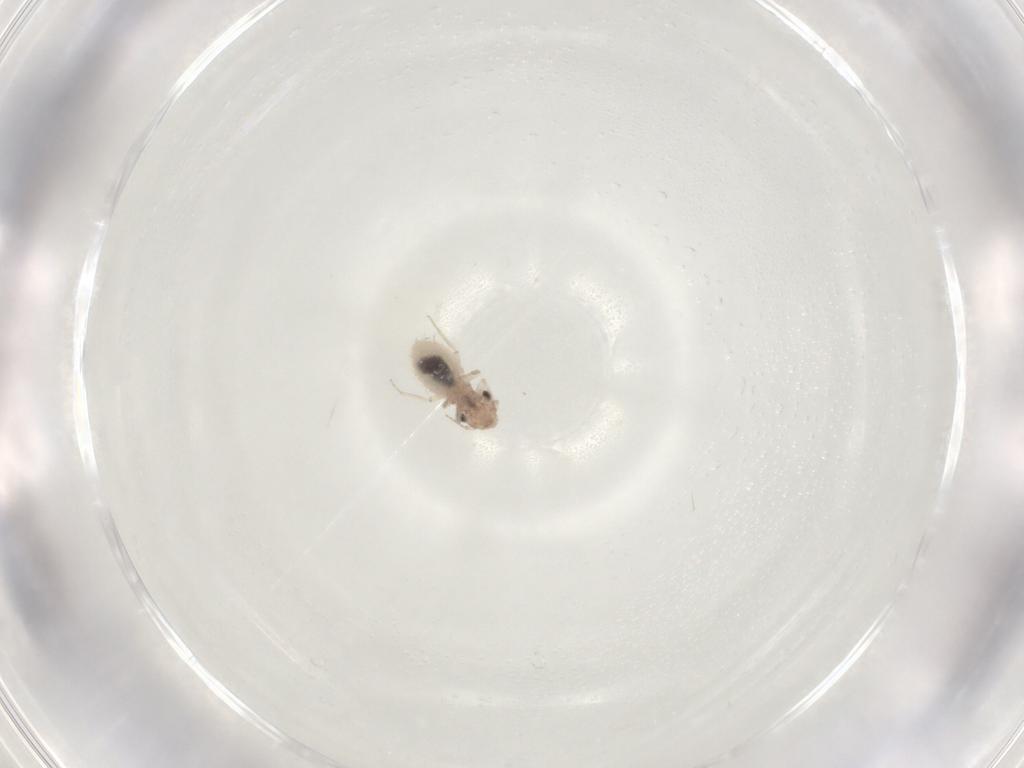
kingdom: Animalia
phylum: Arthropoda
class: Insecta
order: Psocodea
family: Trogiidae
